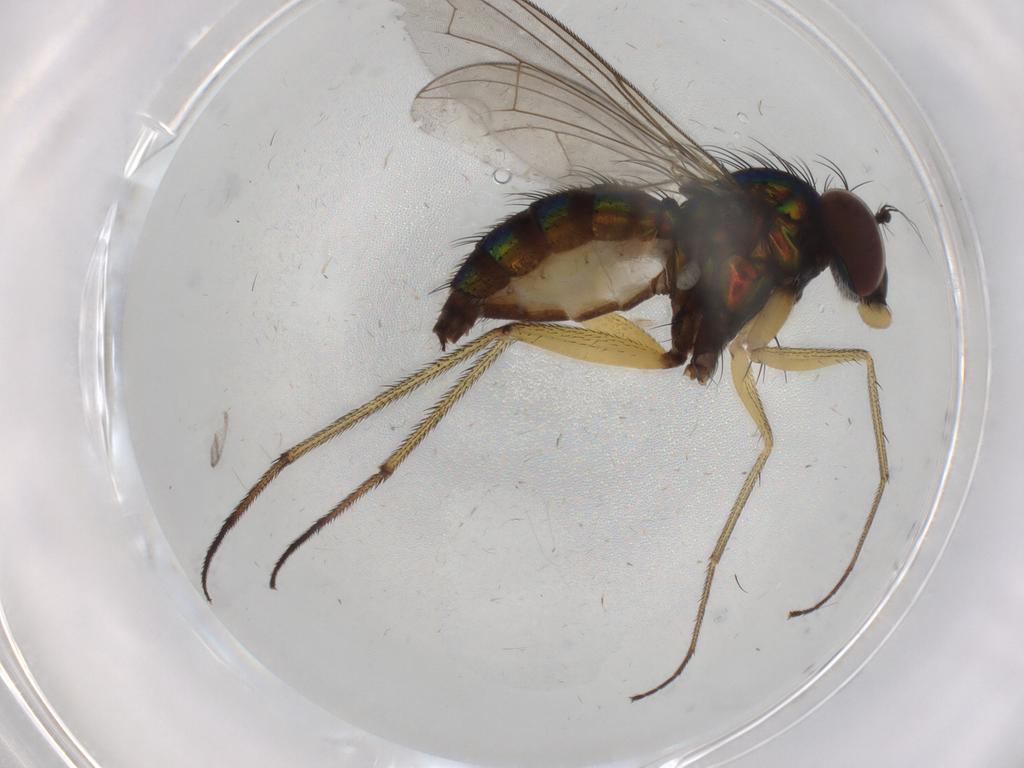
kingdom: Animalia
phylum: Arthropoda
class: Insecta
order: Diptera
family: Dolichopodidae
